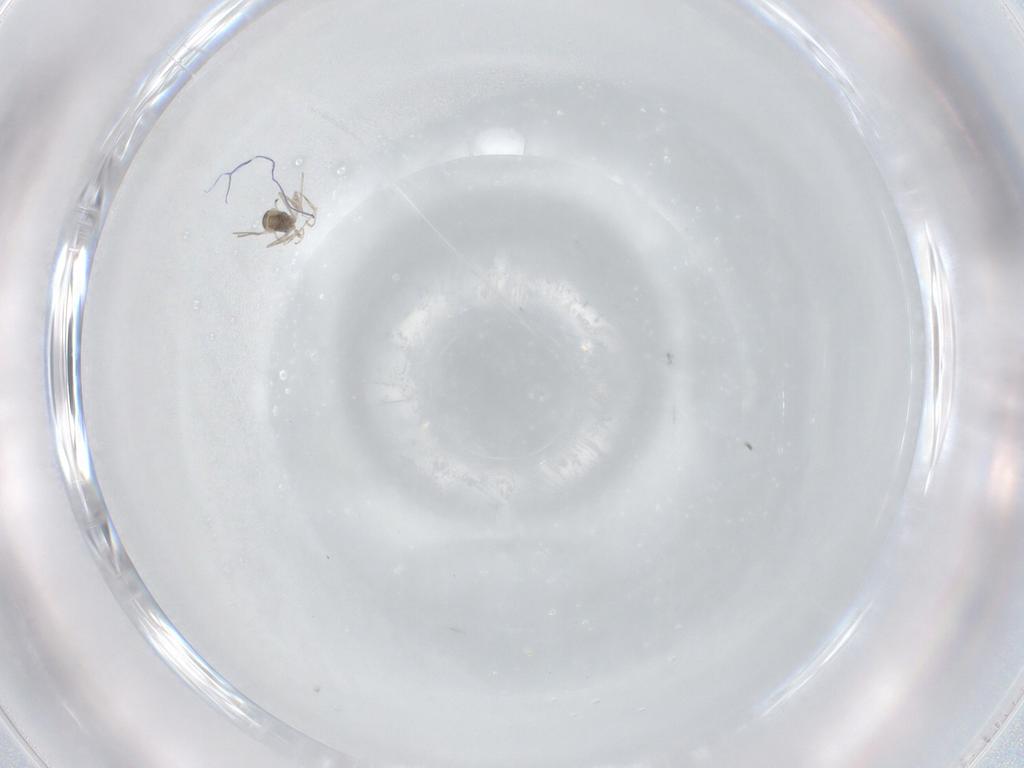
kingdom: Animalia
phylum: Arthropoda
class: Insecta
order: Diptera
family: Cecidomyiidae
